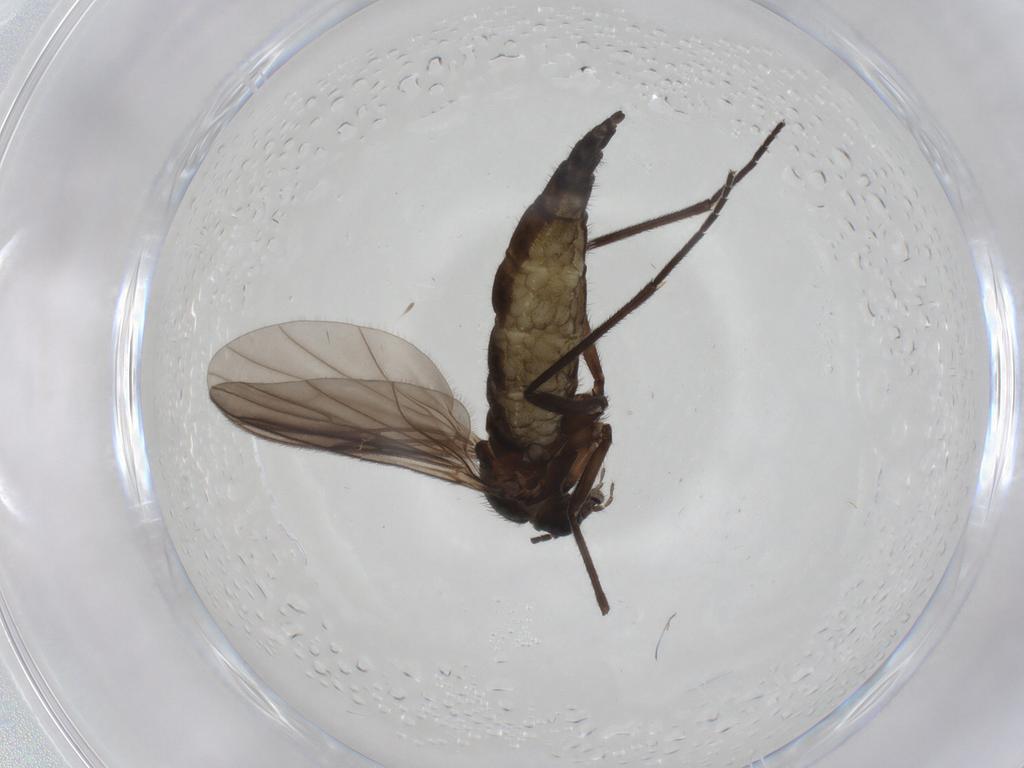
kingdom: Animalia
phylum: Arthropoda
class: Insecta
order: Diptera
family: Sciaridae
